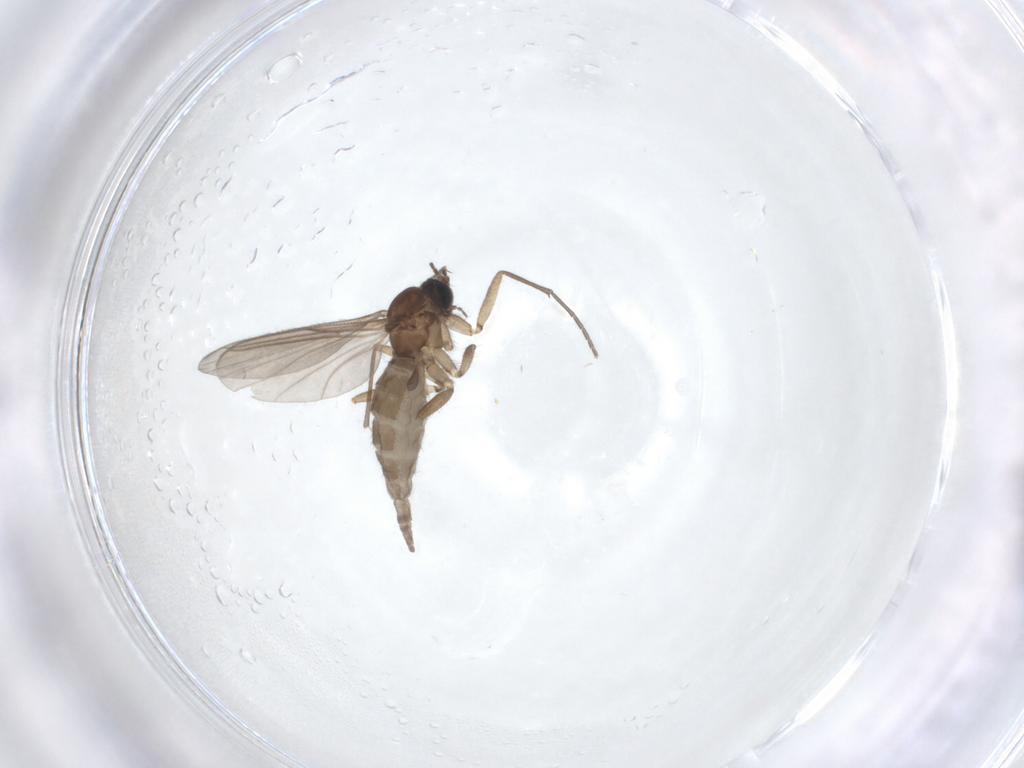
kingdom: Animalia
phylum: Arthropoda
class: Insecta
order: Diptera
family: Sciaridae
